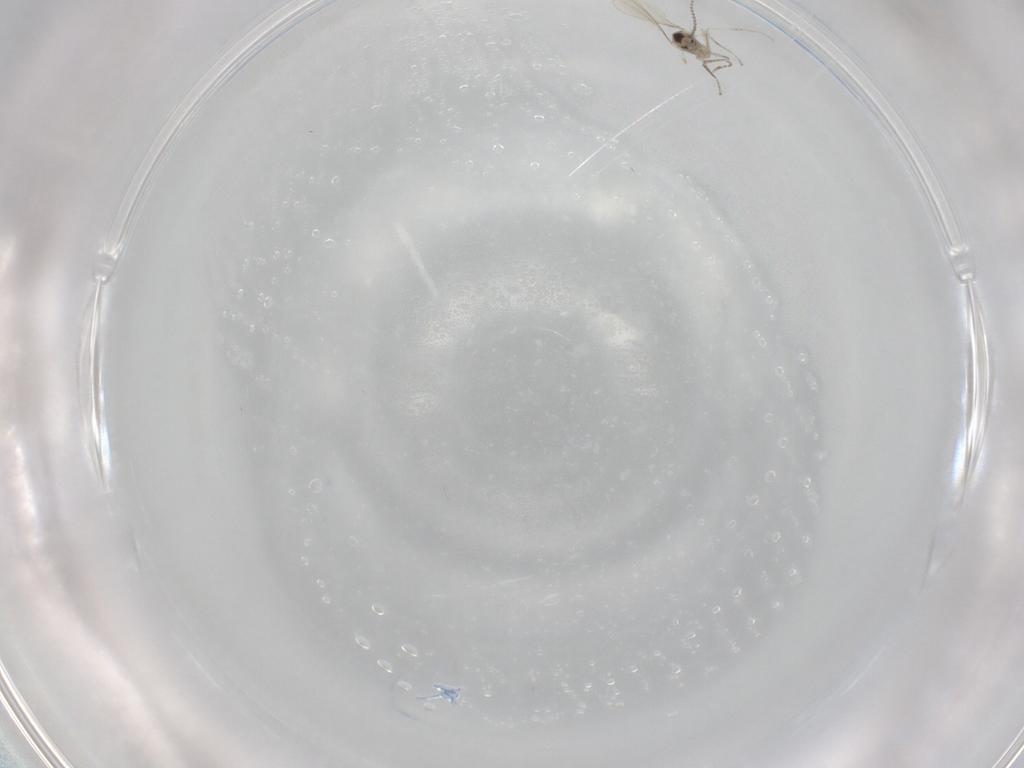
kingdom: Animalia
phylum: Arthropoda
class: Insecta
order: Diptera
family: Cecidomyiidae
